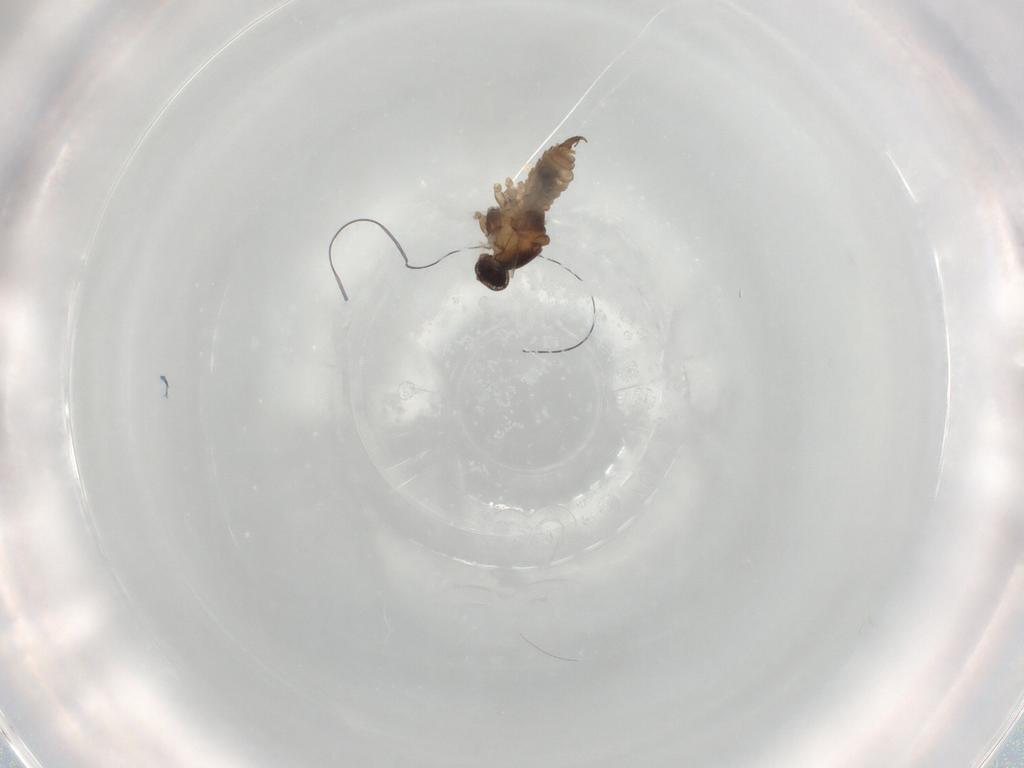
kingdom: Animalia
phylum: Arthropoda
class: Insecta
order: Diptera
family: Cecidomyiidae
